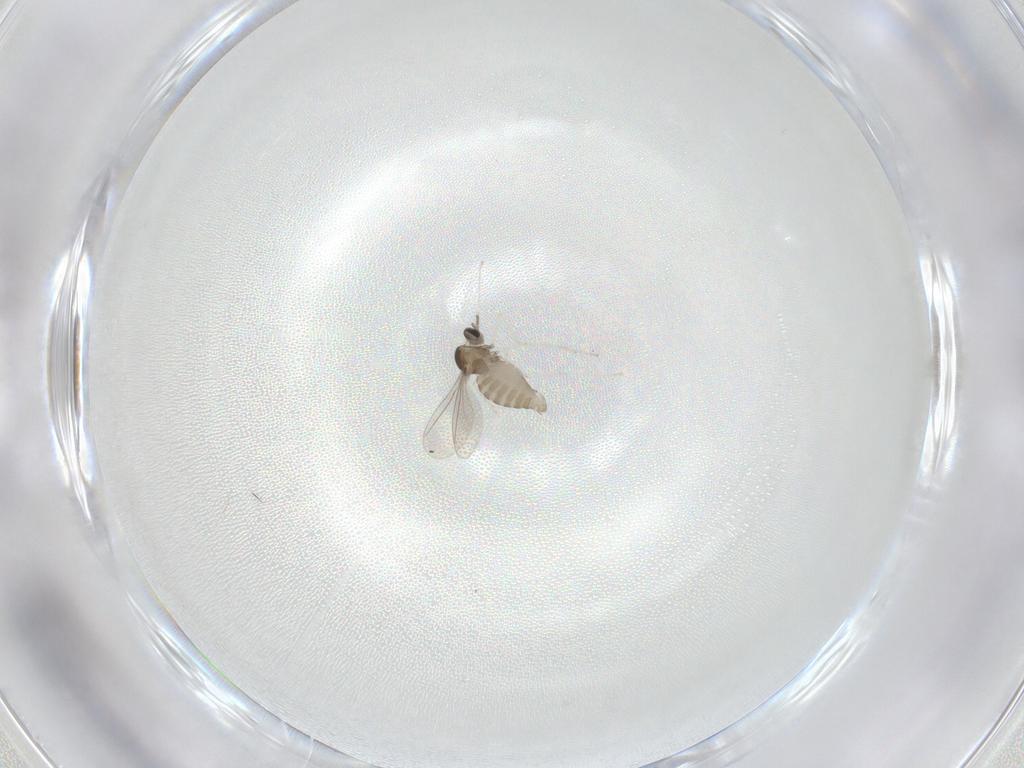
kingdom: Animalia
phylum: Arthropoda
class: Insecta
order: Diptera
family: Cecidomyiidae
